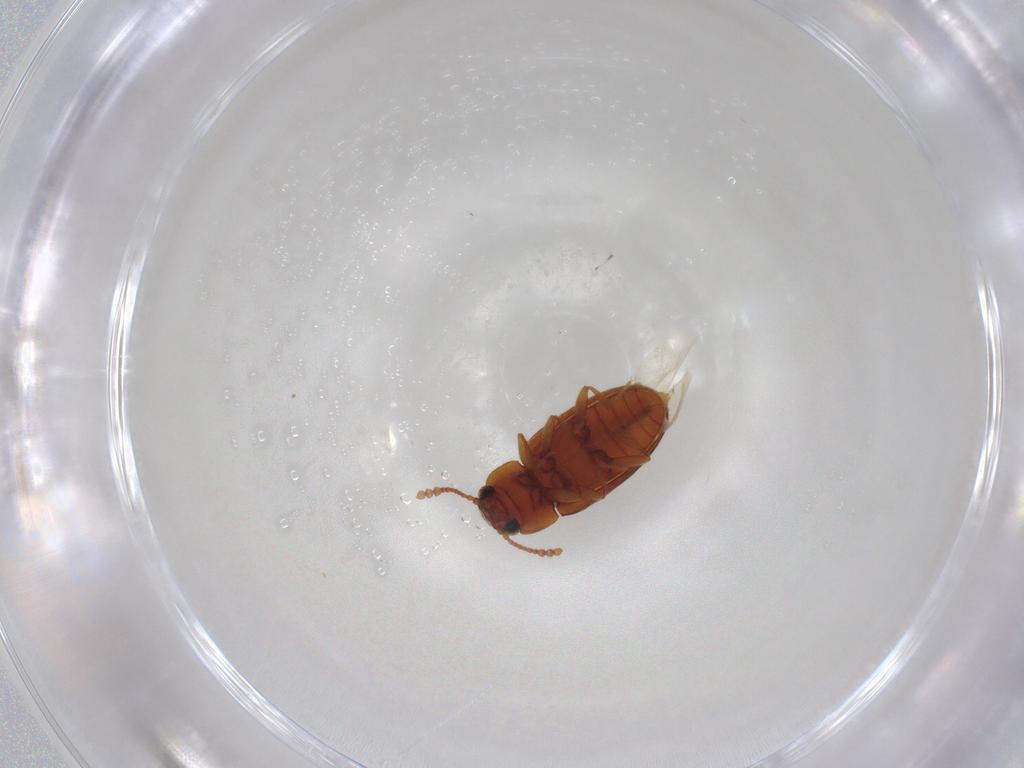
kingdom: Animalia
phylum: Arthropoda
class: Insecta
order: Coleoptera
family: Erotylidae
